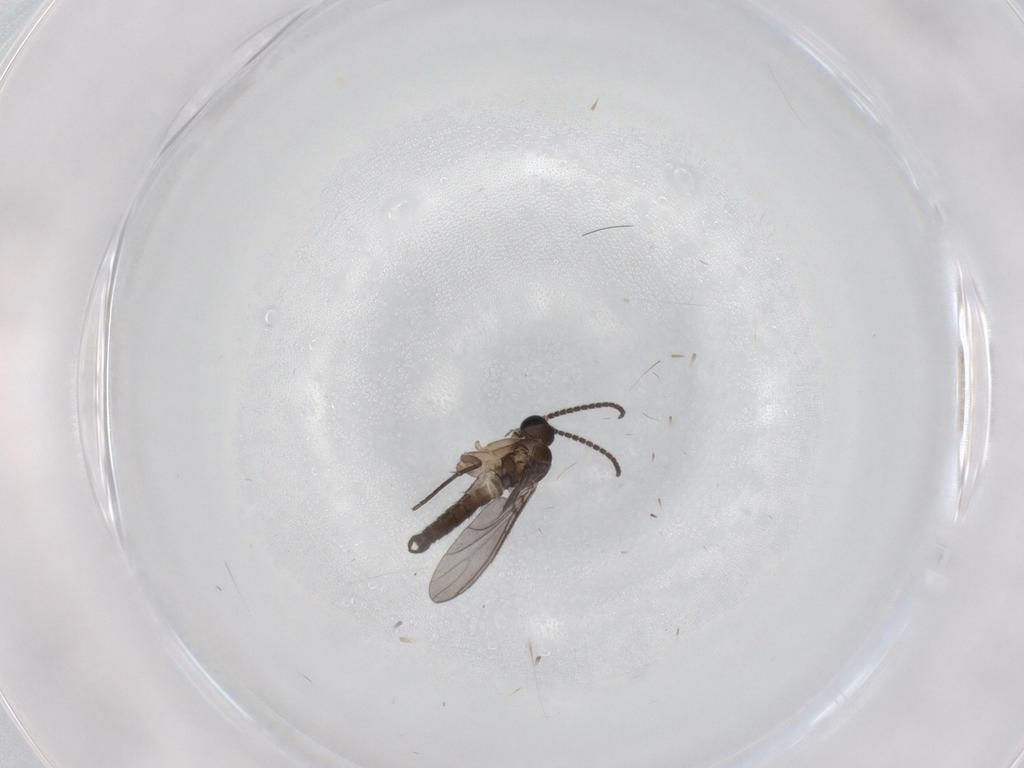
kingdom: Animalia
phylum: Arthropoda
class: Insecta
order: Diptera
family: Sciaridae
